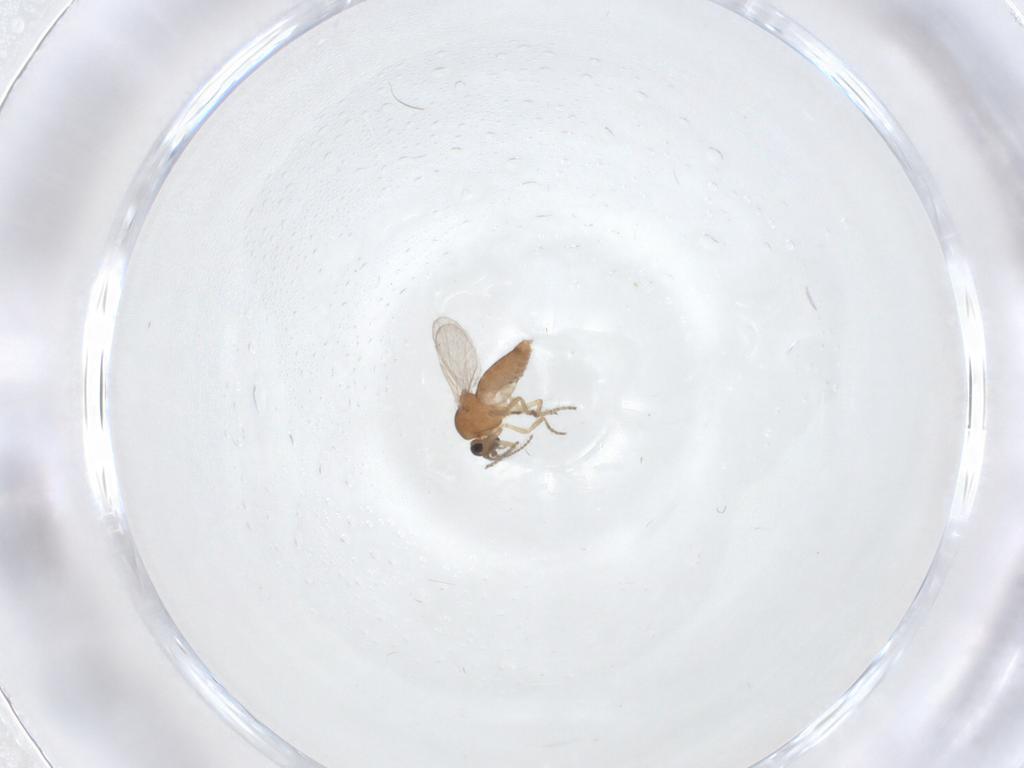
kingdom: Animalia
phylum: Arthropoda
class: Insecta
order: Diptera
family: Ceratopogonidae
